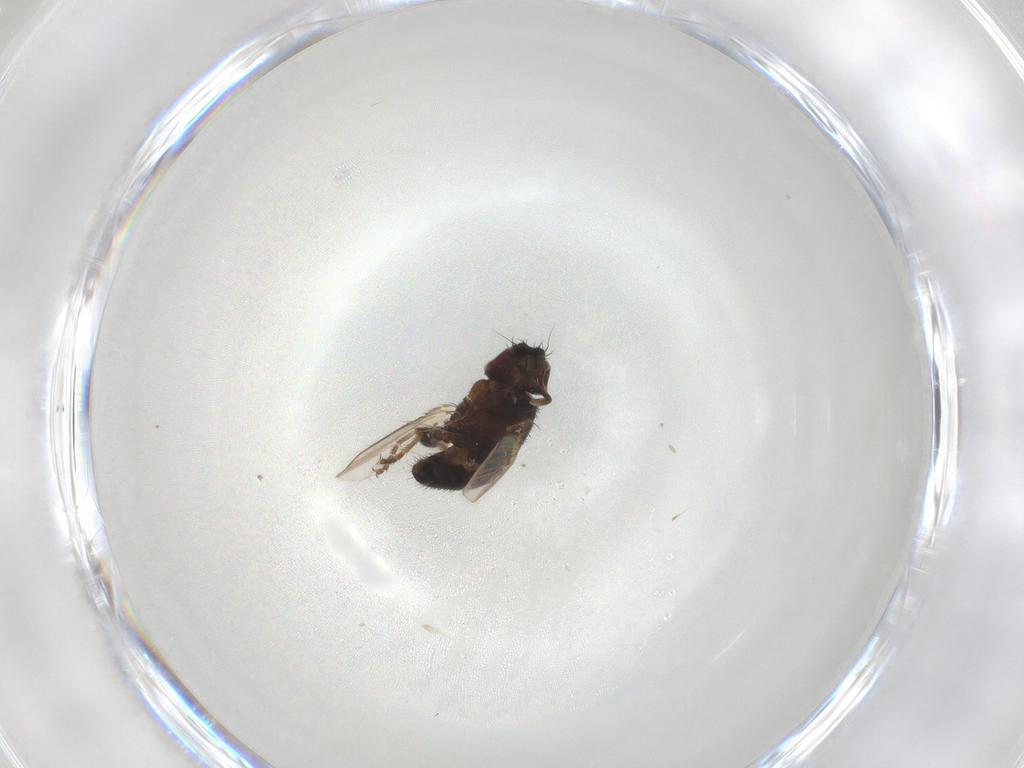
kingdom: Animalia
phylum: Arthropoda
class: Insecta
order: Diptera
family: Milichiidae
